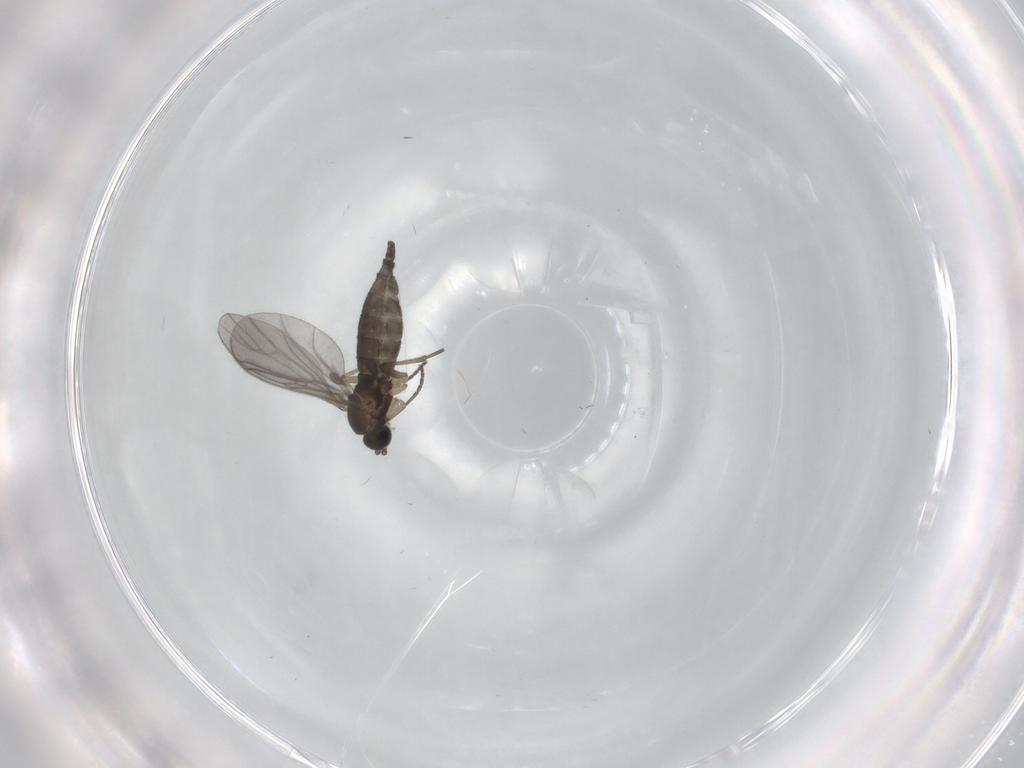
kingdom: Animalia
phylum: Arthropoda
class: Insecta
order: Diptera
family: Sciaridae
